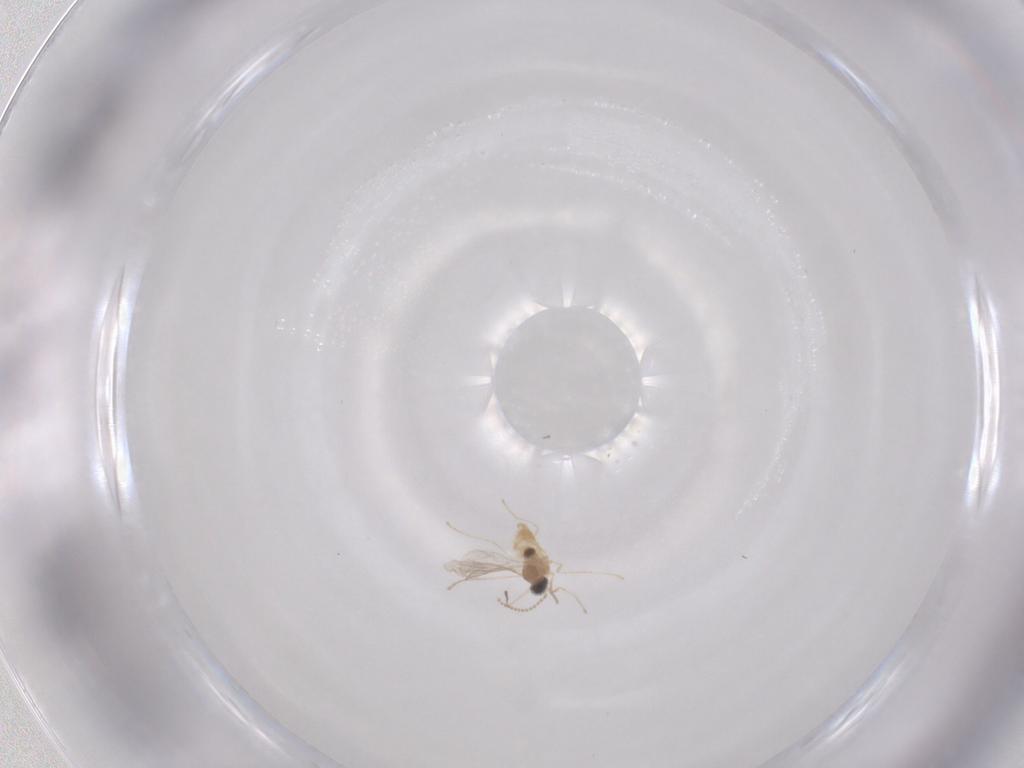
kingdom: Animalia
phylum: Arthropoda
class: Insecta
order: Diptera
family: Cecidomyiidae
